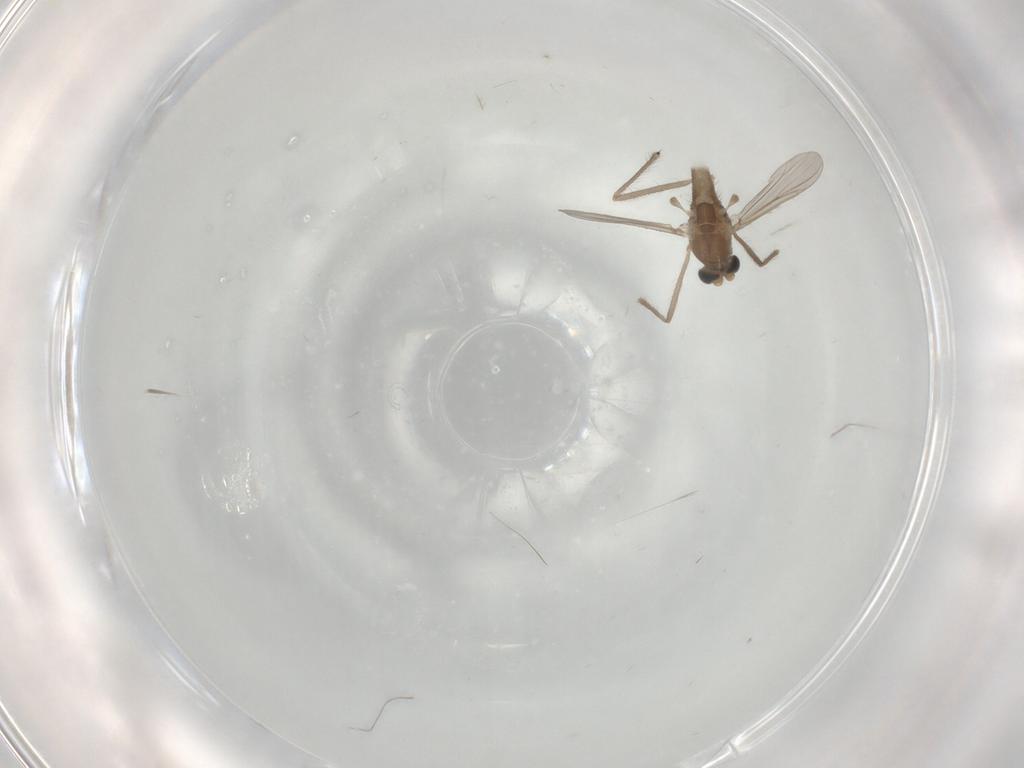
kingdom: Animalia
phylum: Arthropoda
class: Insecta
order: Diptera
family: Chironomidae
